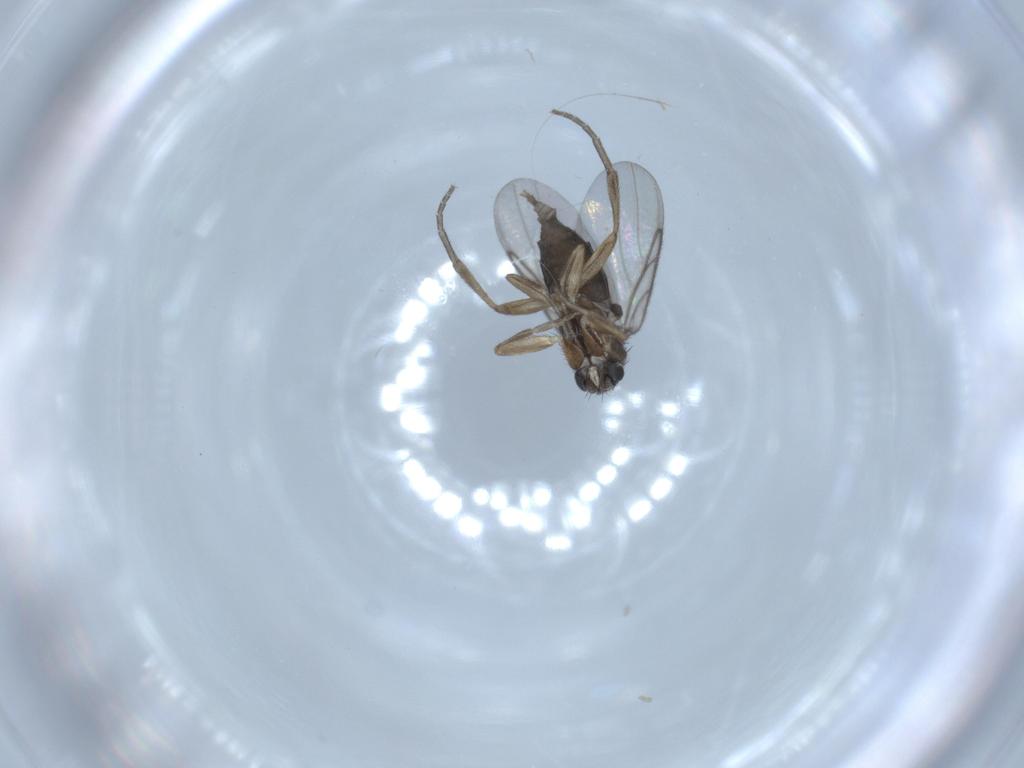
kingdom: Animalia
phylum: Arthropoda
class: Insecta
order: Diptera
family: Phoridae
